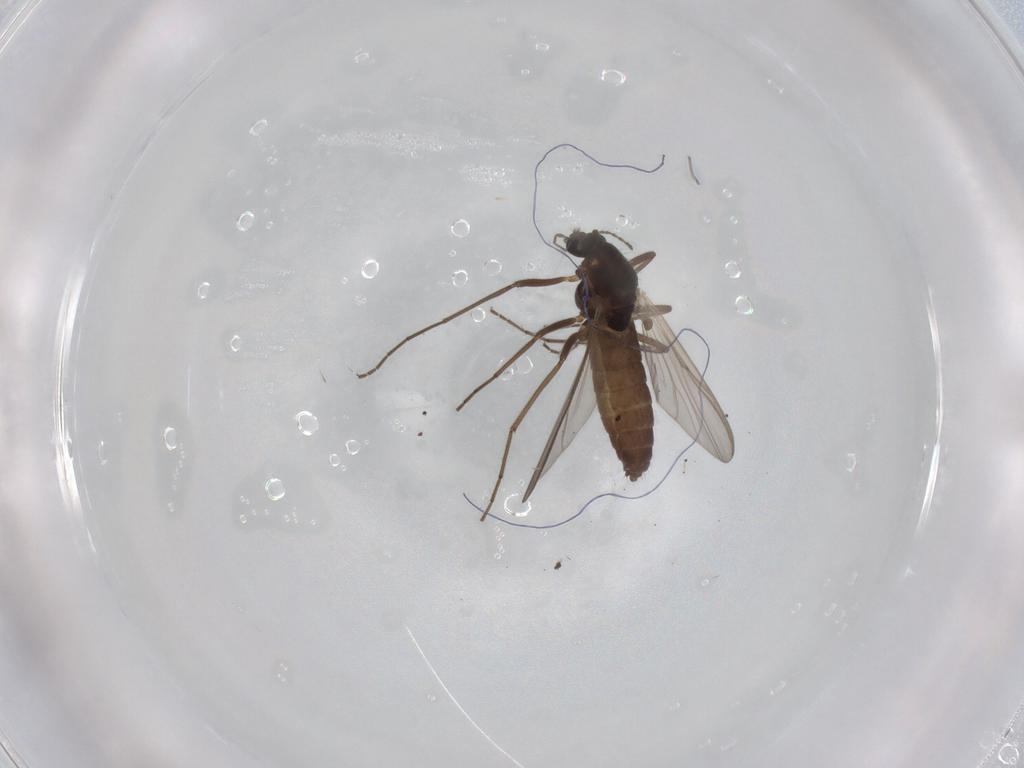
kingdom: Animalia
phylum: Arthropoda
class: Insecta
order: Diptera
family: Chironomidae
